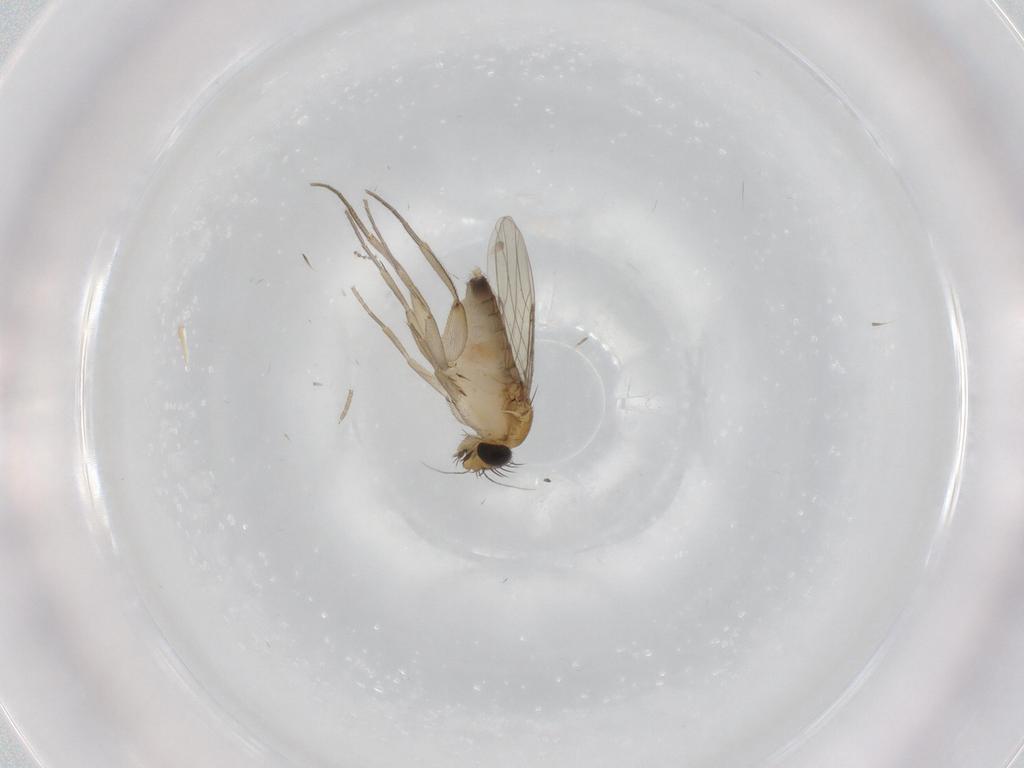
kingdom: Animalia
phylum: Arthropoda
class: Insecta
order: Diptera
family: Phoridae
